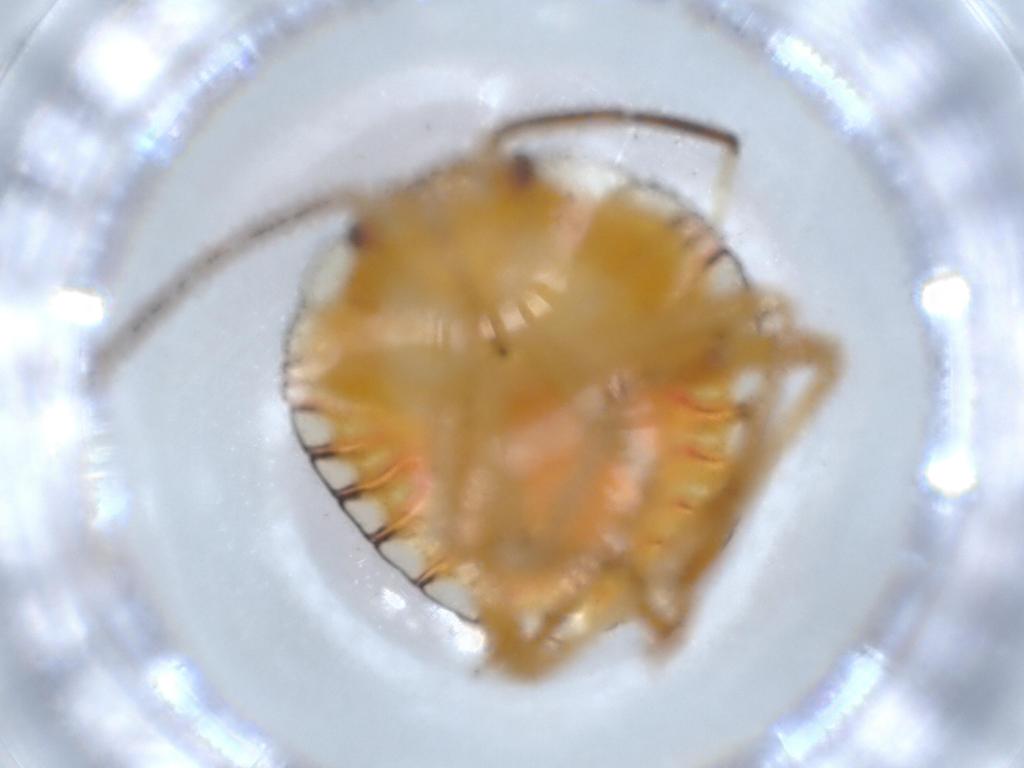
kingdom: Animalia
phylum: Arthropoda
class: Insecta
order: Hemiptera
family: Pentatomidae
